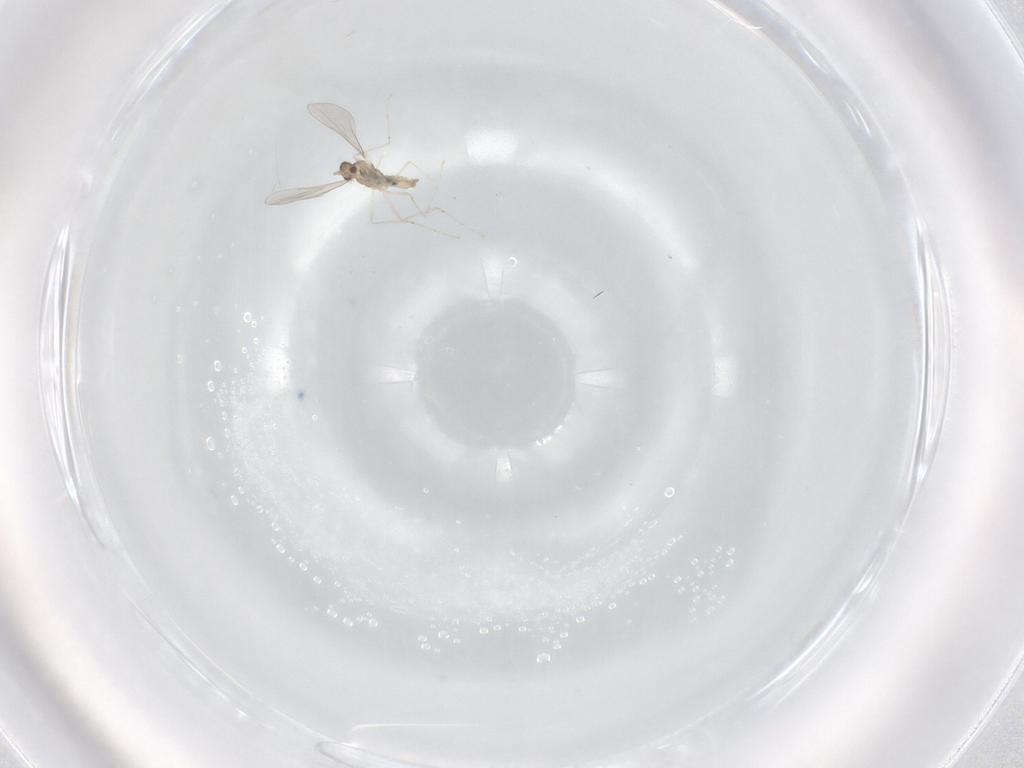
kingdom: Animalia
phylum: Arthropoda
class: Insecta
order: Diptera
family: Cecidomyiidae
